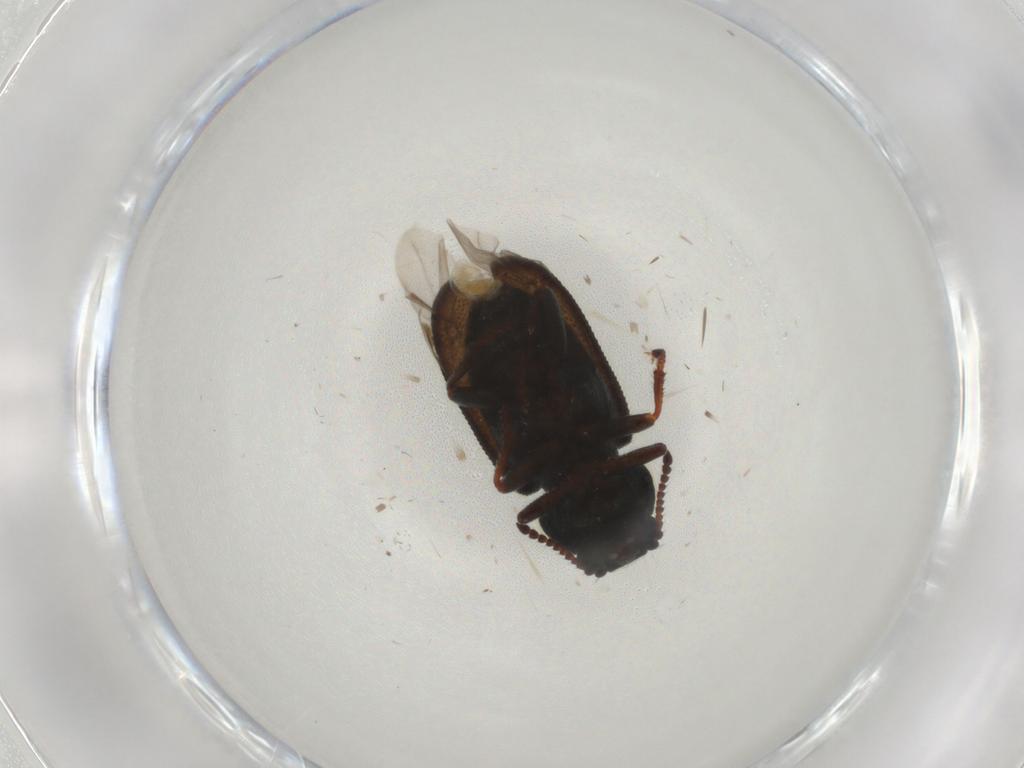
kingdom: Animalia
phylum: Arthropoda
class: Insecta
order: Coleoptera
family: Melyridae
